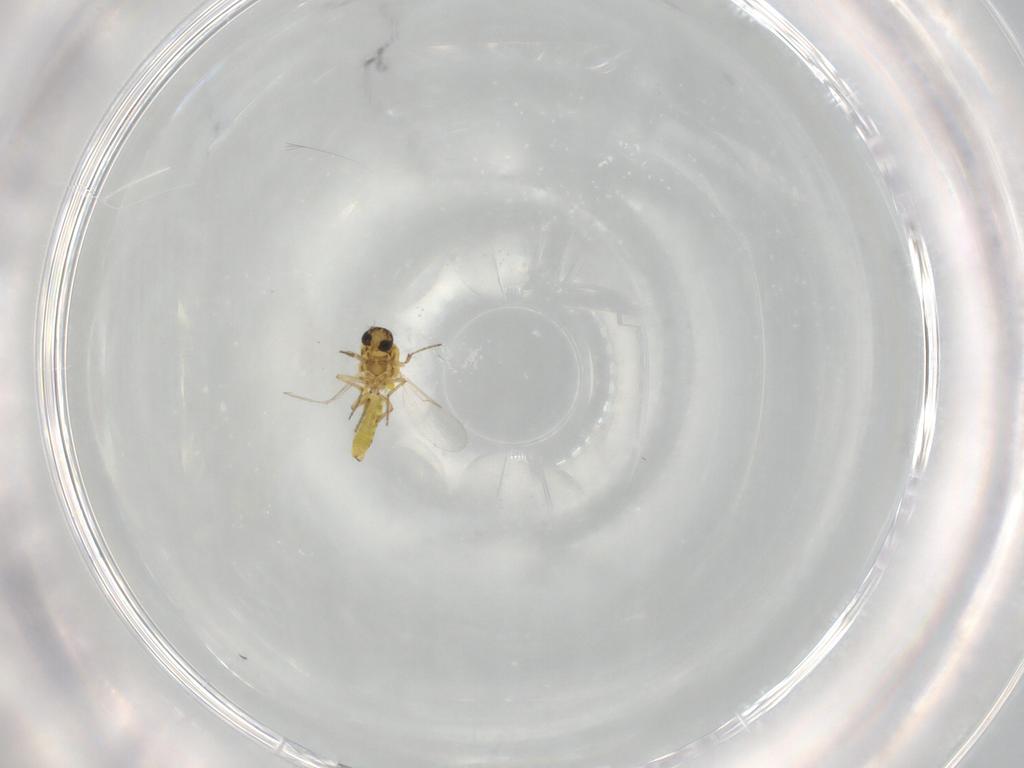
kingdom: Animalia
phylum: Arthropoda
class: Insecta
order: Diptera
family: Ceratopogonidae
